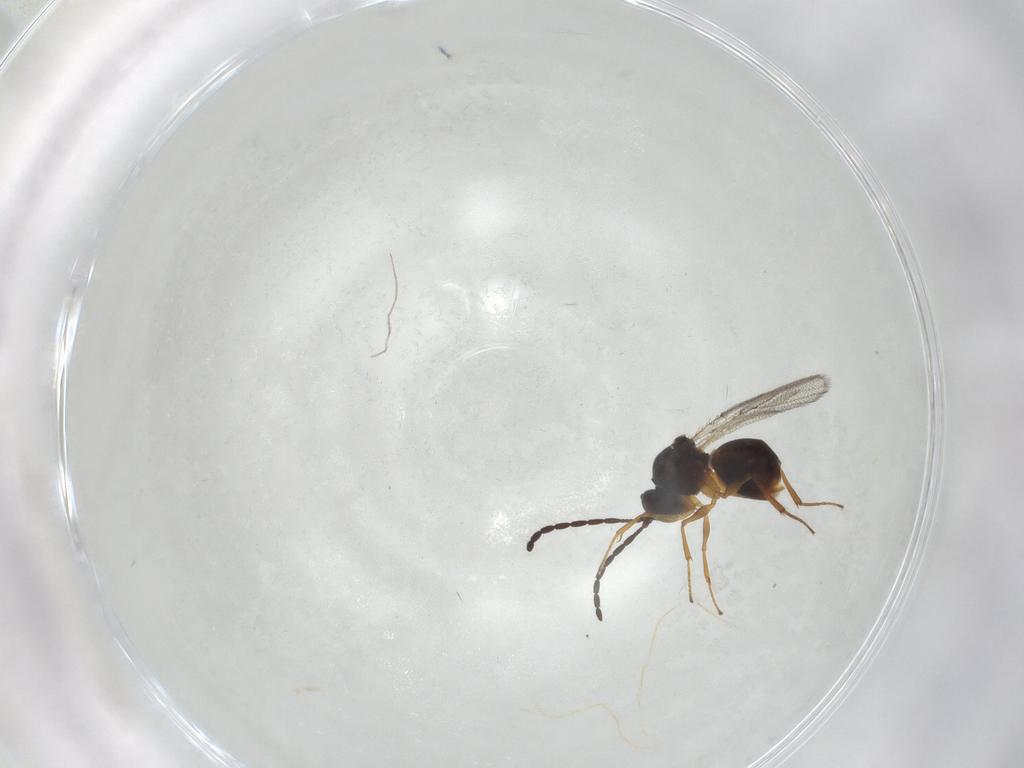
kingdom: Animalia
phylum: Arthropoda
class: Insecta
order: Hymenoptera
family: Figitidae
